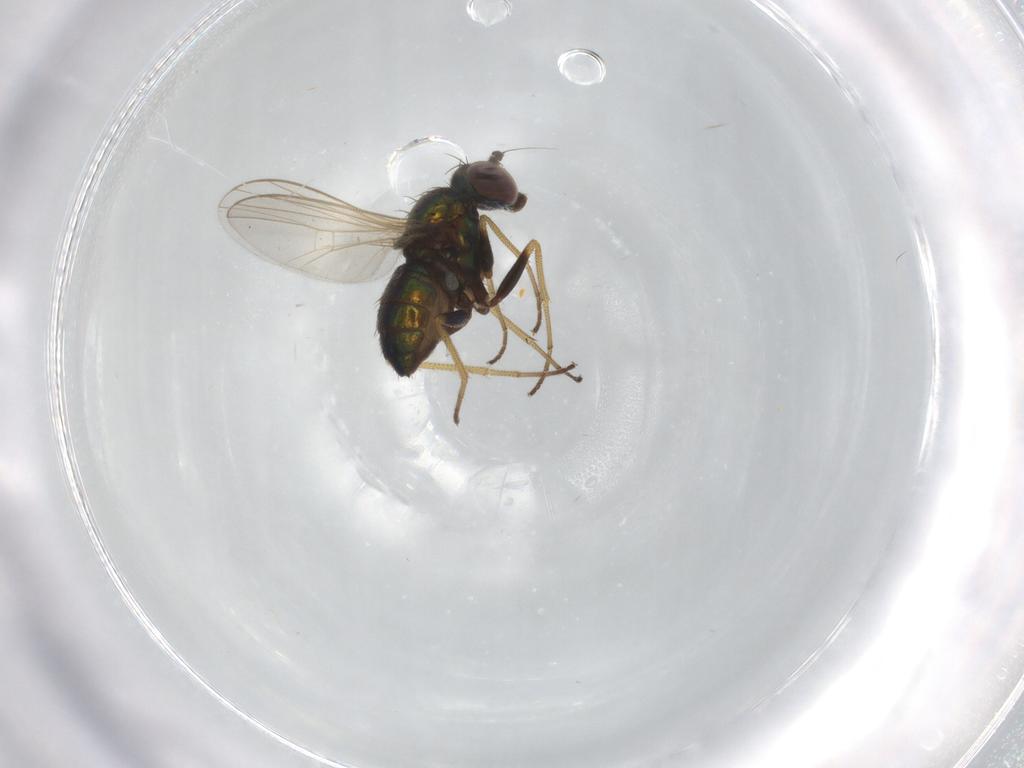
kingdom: Animalia
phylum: Arthropoda
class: Insecta
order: Diptera
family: Dolichopodidae
